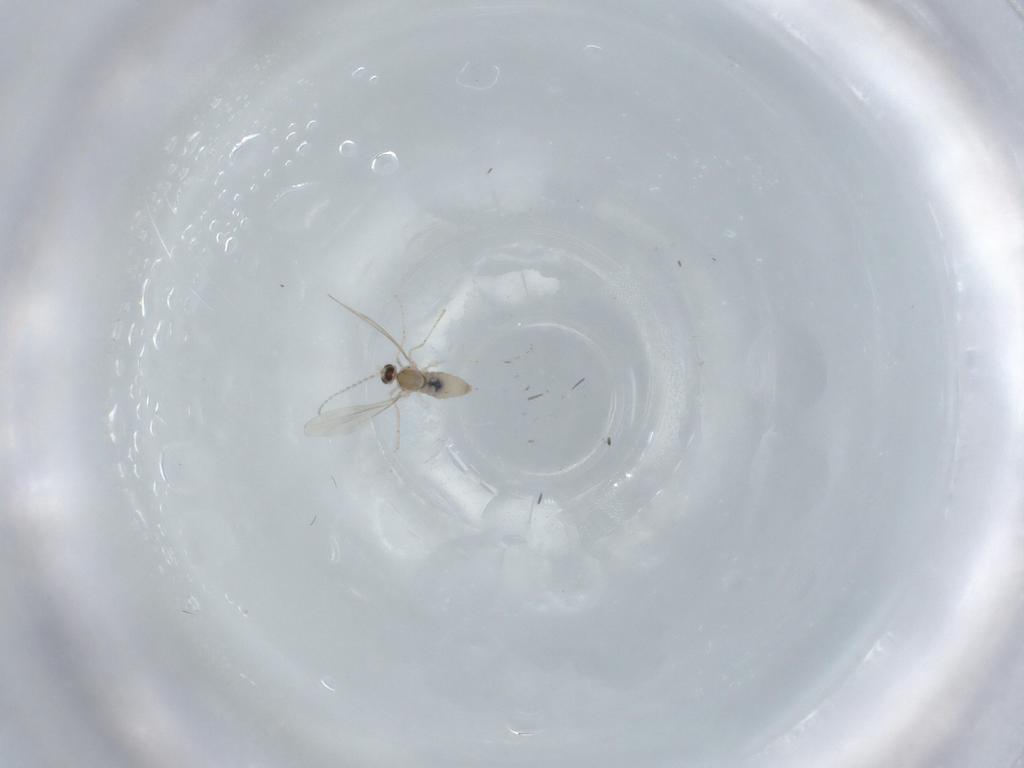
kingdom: Animalia
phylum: Arthropoda
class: Insecta
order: Diptera
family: Cecidomyiidae
